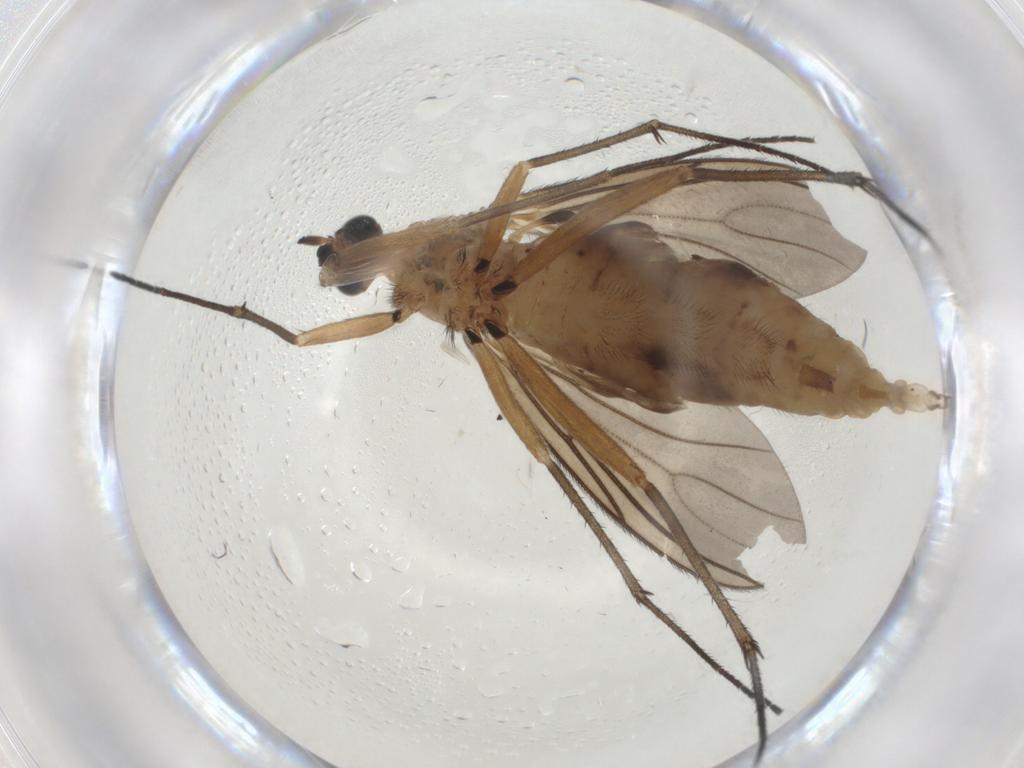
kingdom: Animalia
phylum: Arthropoda
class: Insecta
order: Diptera
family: Sciaridae
